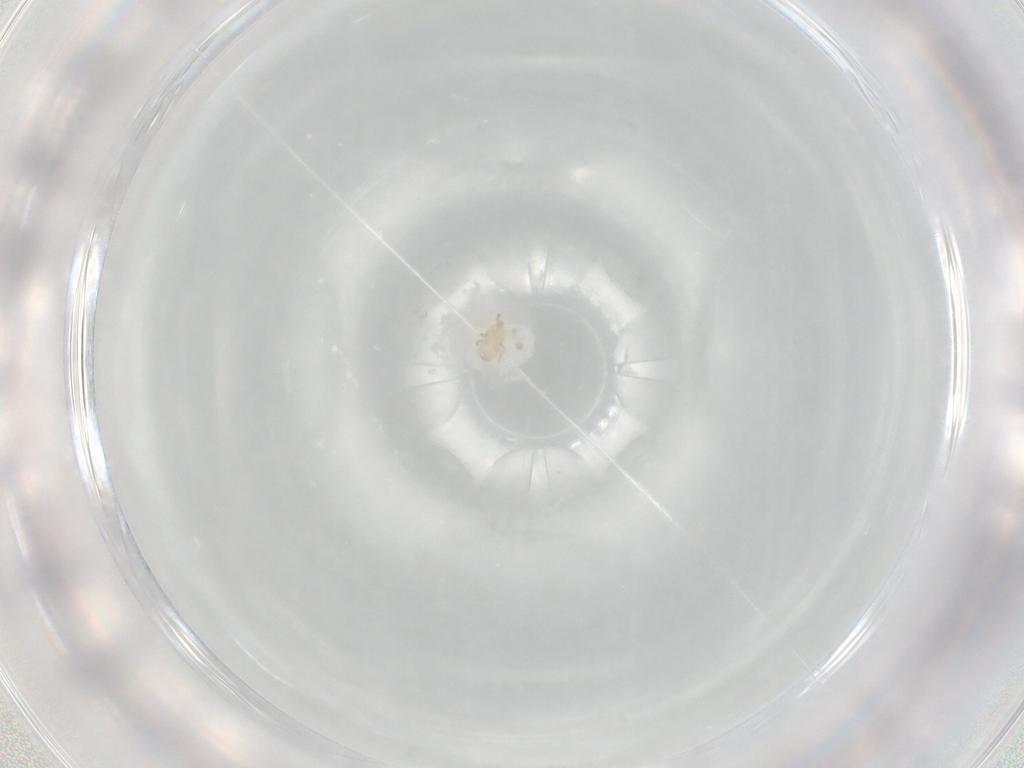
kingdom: Animalia
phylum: Arthropoda
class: Arachnida
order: Mesostigmata
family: Microgyniidae
